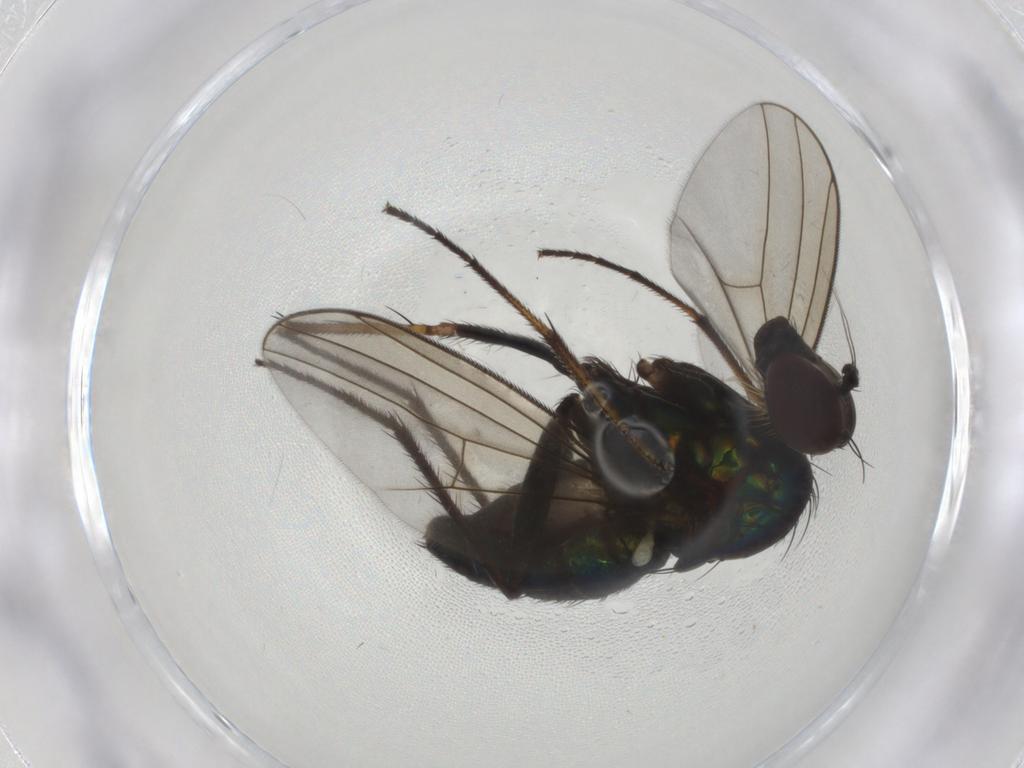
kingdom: Animalia
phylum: Arthropoda
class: Insecta
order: Diptera
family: Dolichopodidae
